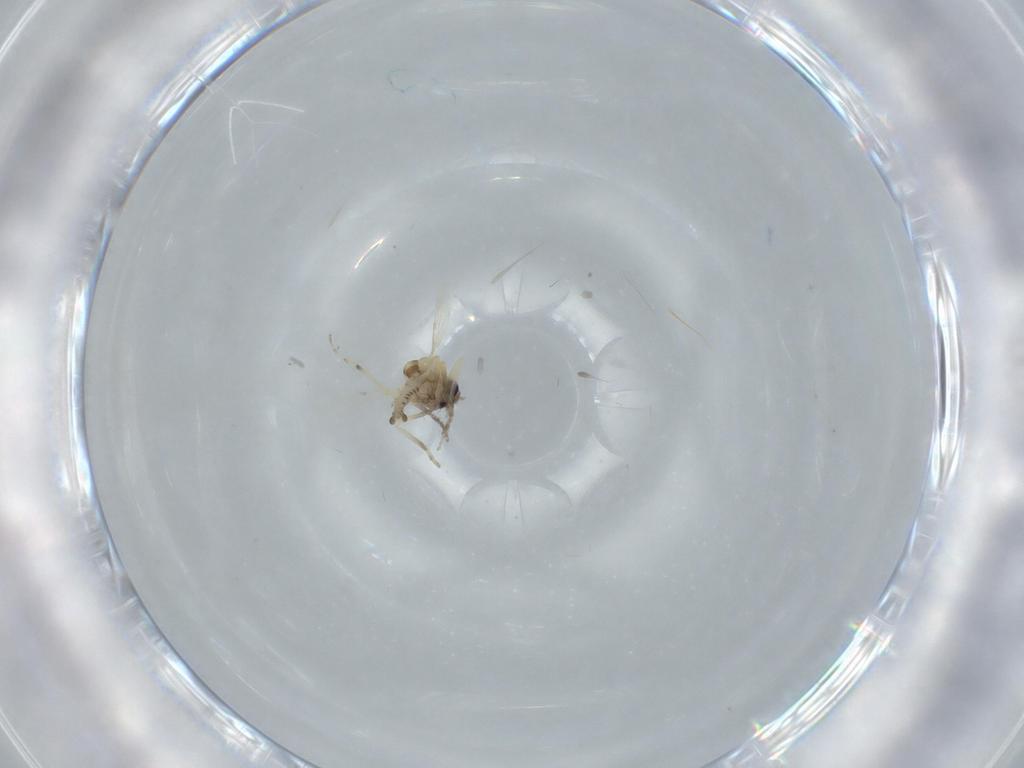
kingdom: Animalia
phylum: Arthropoda
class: Insecta
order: Diptera
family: Ceratopogonidae
